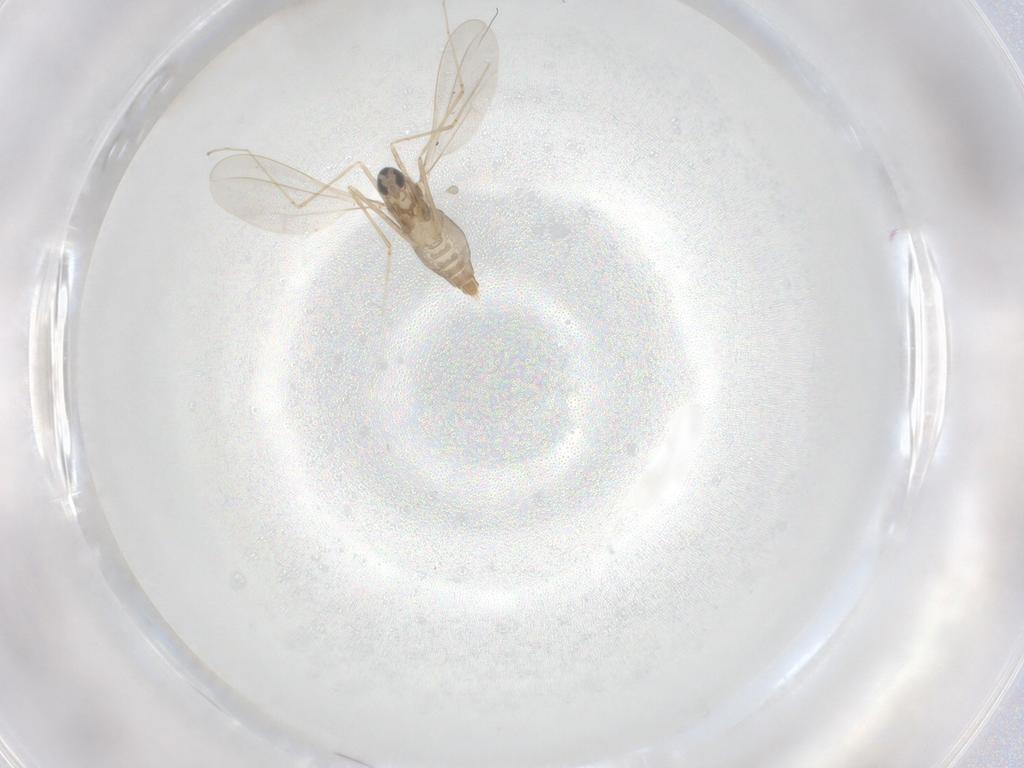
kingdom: Animalia
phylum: Arthropoda
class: Insecta
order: Diptera
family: Cecidomyiidae
